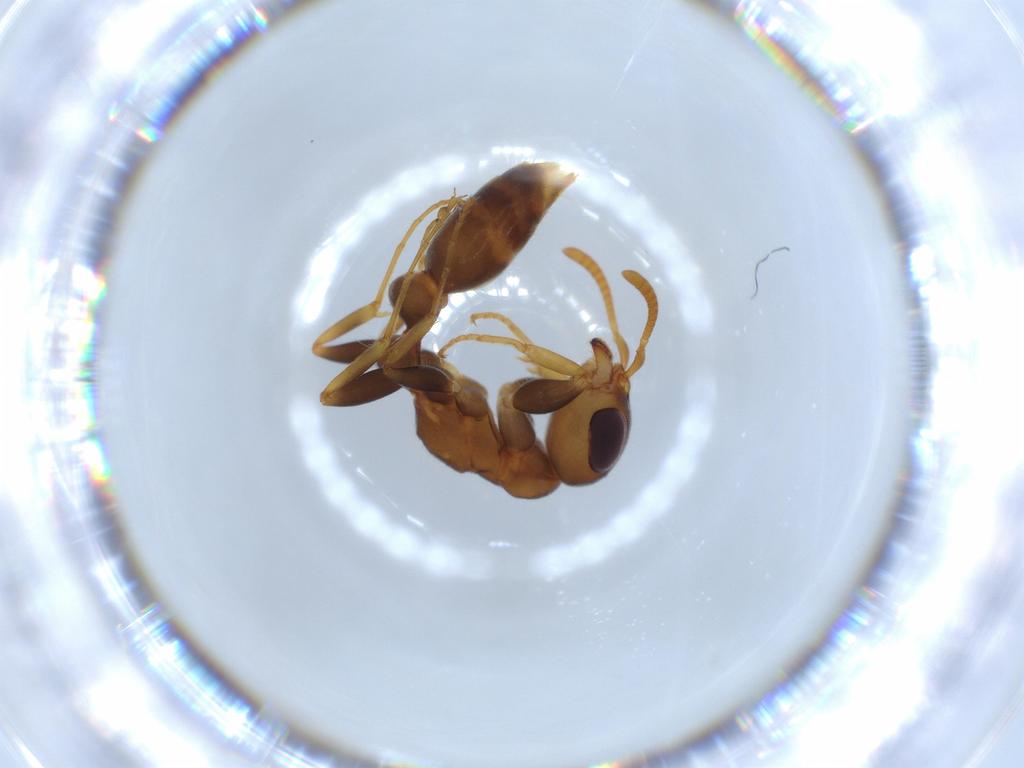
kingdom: Animalia
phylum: Arthropoda
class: Insecta
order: Hymenoptera
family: Formicidae
